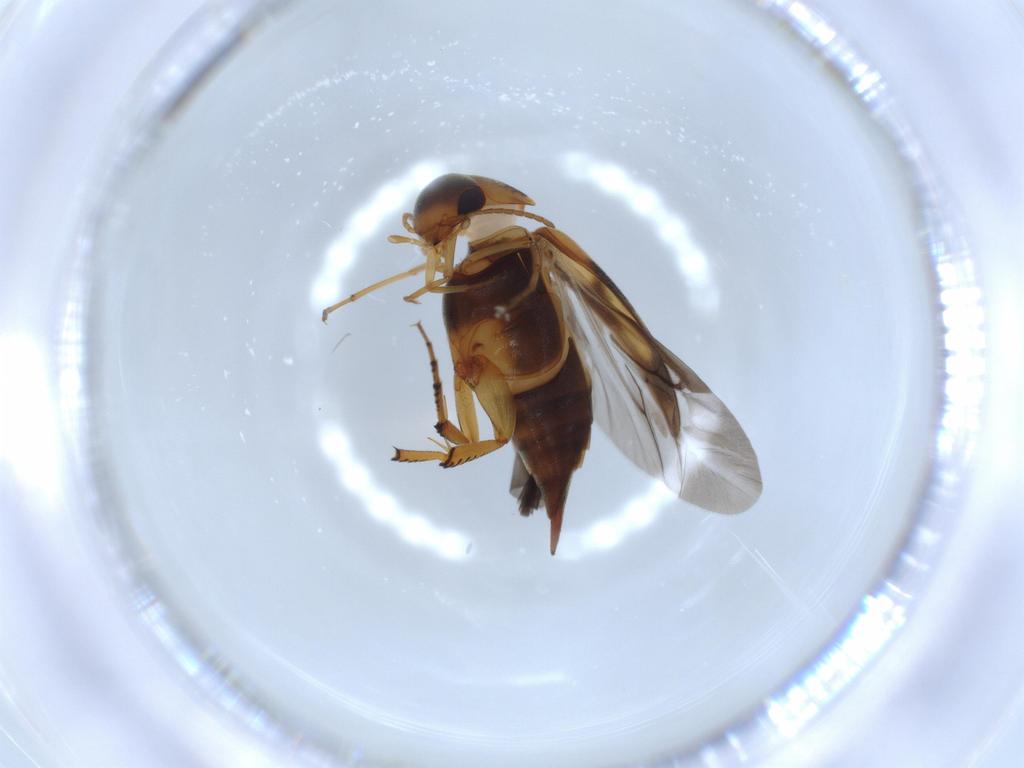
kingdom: Animalia
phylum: Arthropoda
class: Insecta
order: Coleoptera
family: Mordellidae
